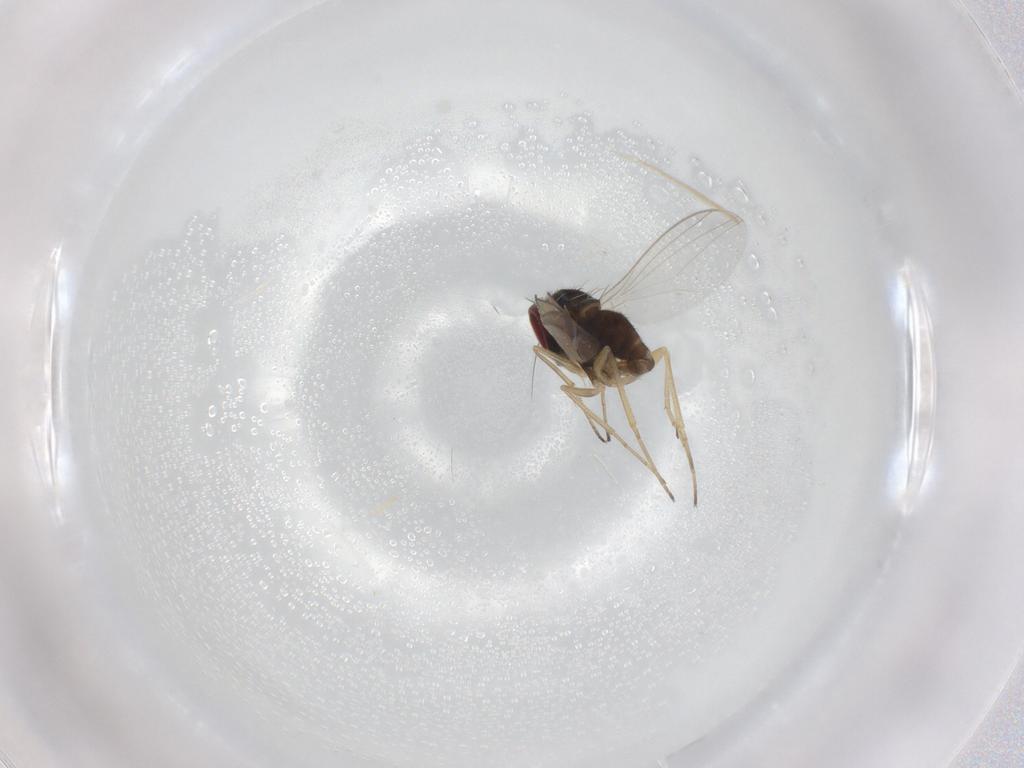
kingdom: Animalia
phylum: Arthropoda
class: Insecta
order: Diptera
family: Dolichopodidae
